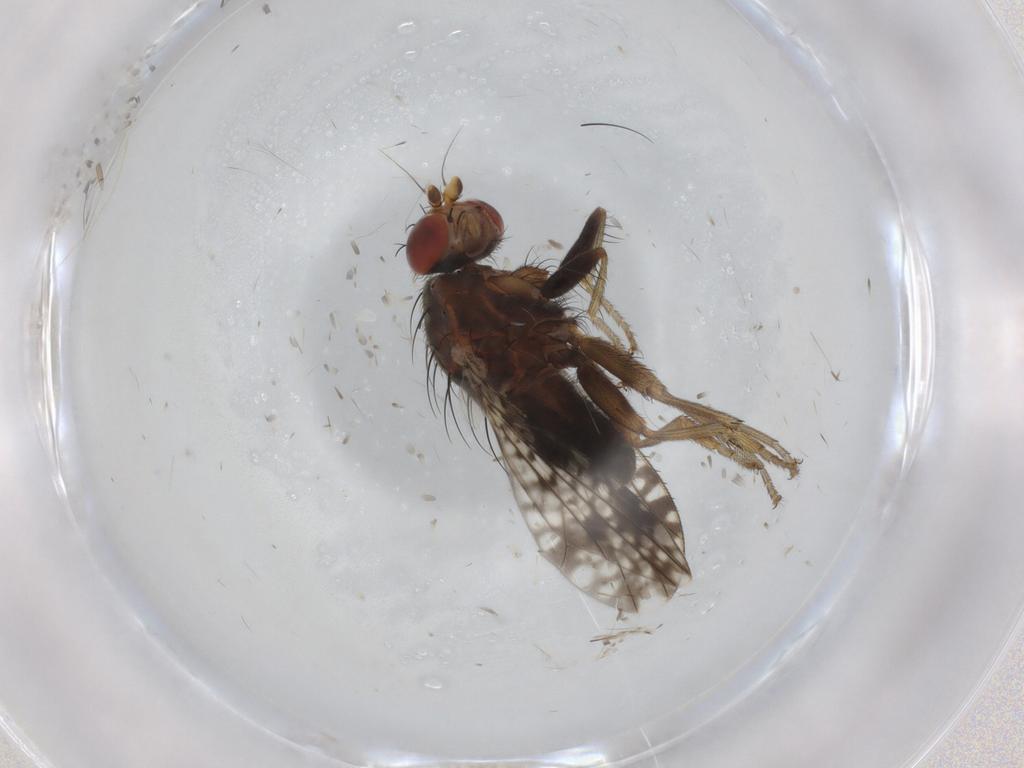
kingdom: Animalia
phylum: Arthropoda
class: Insecta
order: Diptera
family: Tephritidae
